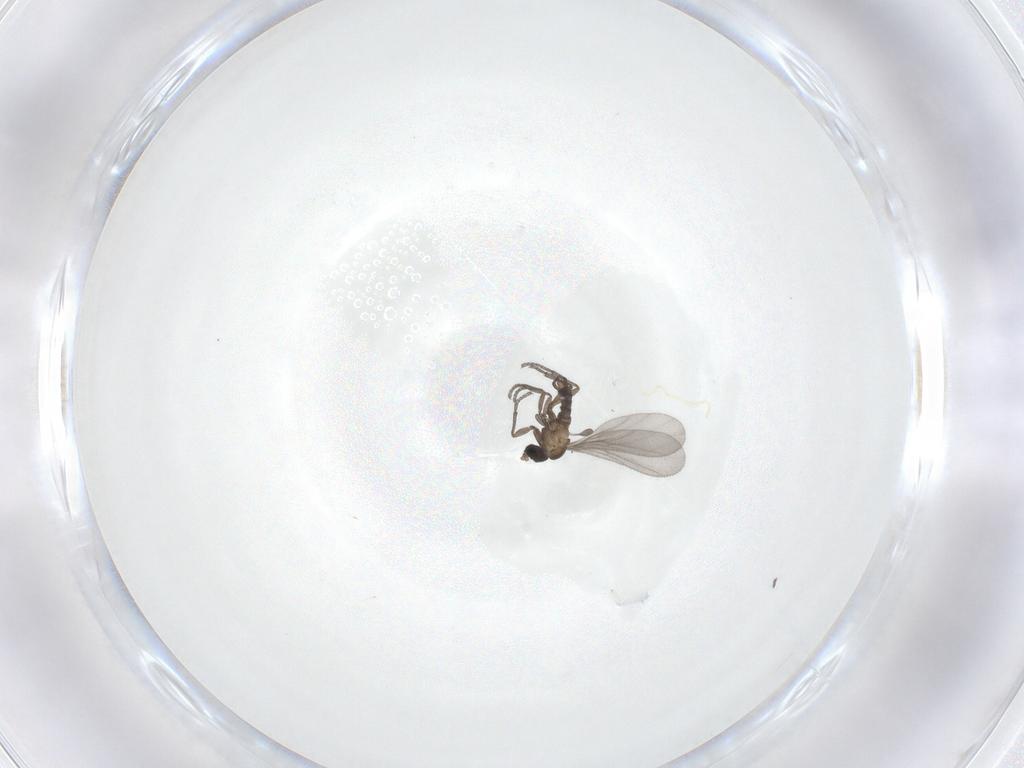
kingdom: Animalia
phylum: Arthropoda
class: Insecta
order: Diptera
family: Sciaridae
